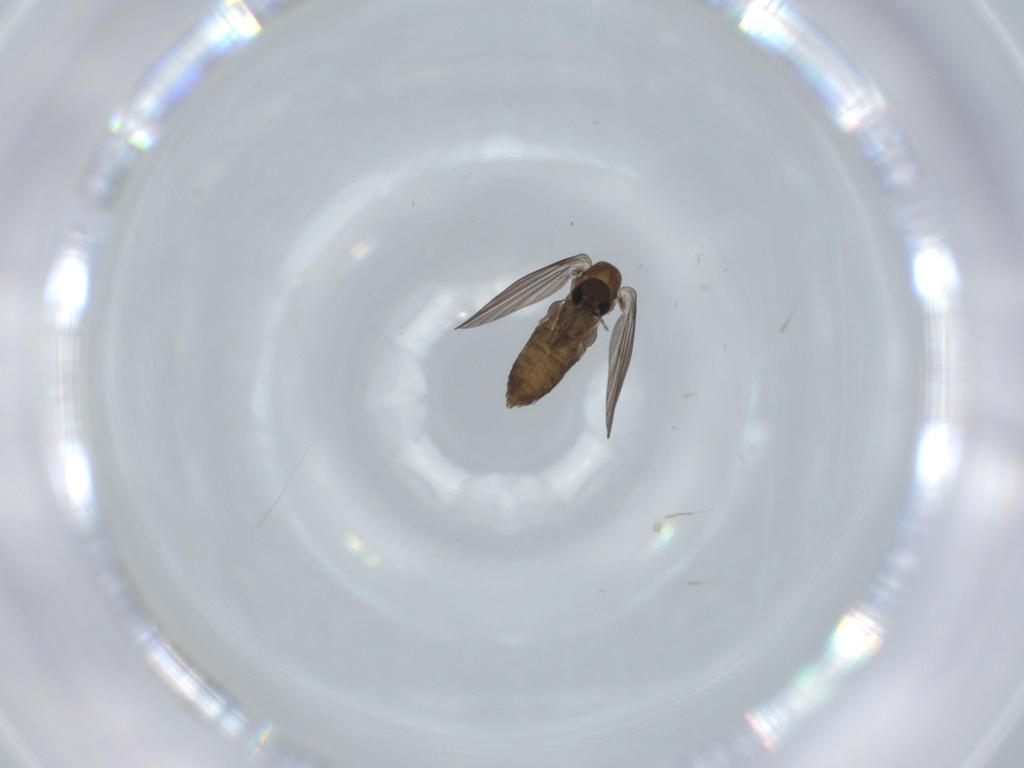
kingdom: Animalia
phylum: Arthropoda
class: Insecta
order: Diptera
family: Psychodidae
